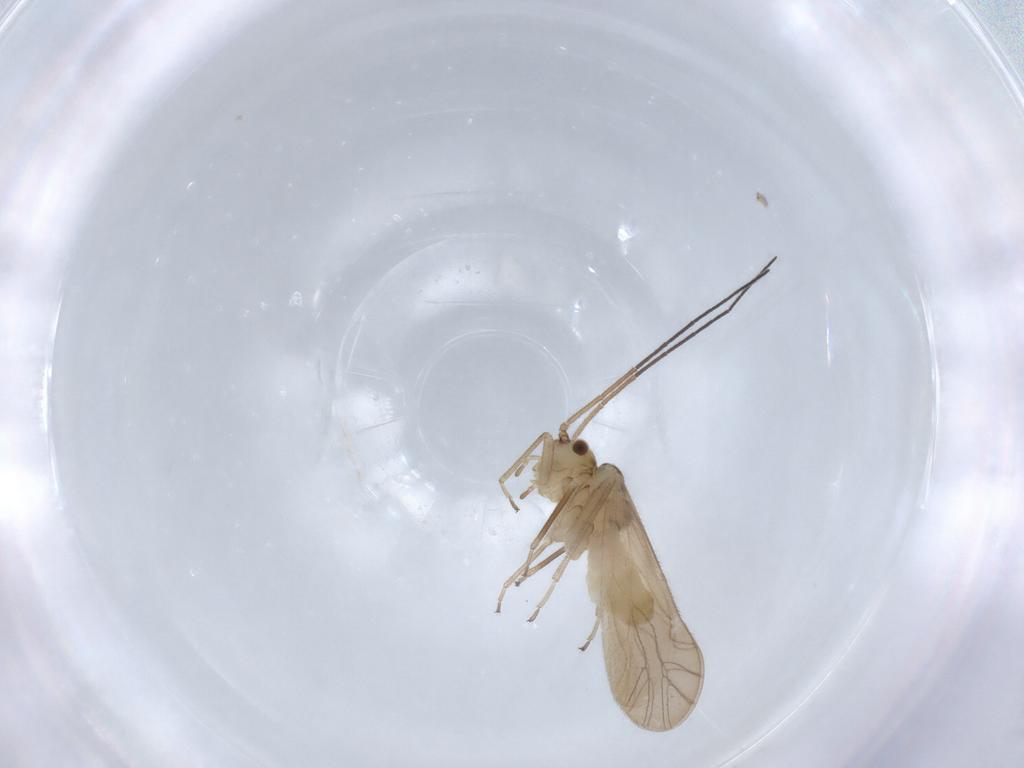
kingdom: Animalia
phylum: Arthropoda
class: Insecta
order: Psocodea
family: Caeciliusidae
